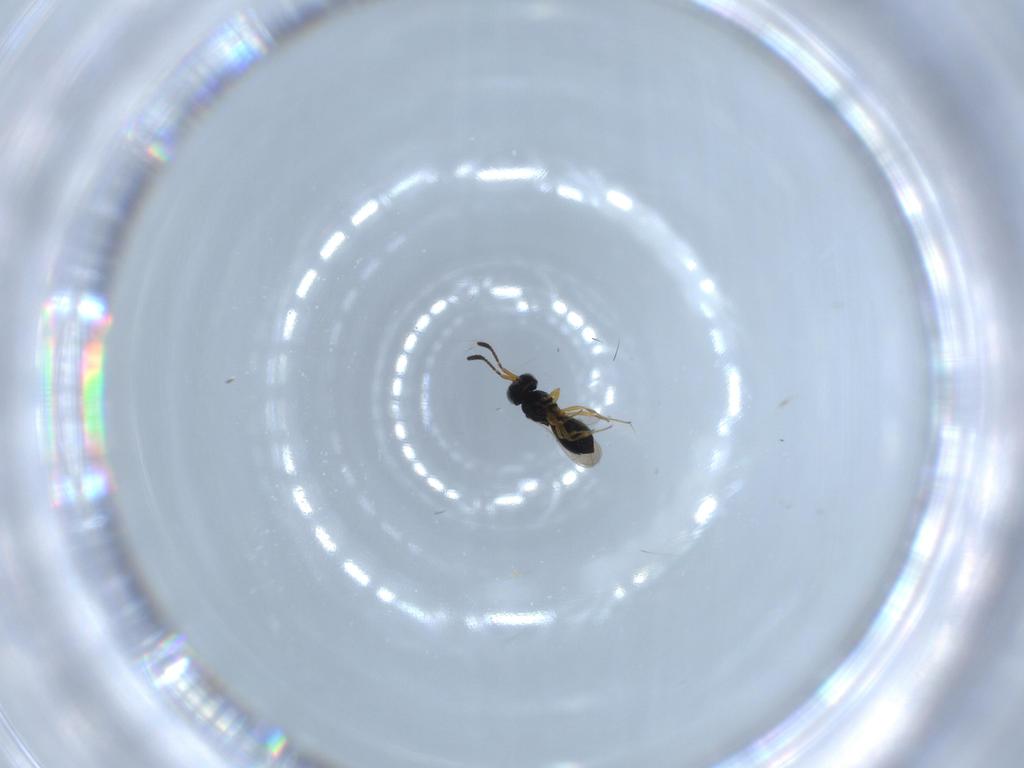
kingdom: Animalia
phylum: Arthropoda
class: Insecta
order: Hymenoptera
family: Scelionidae
